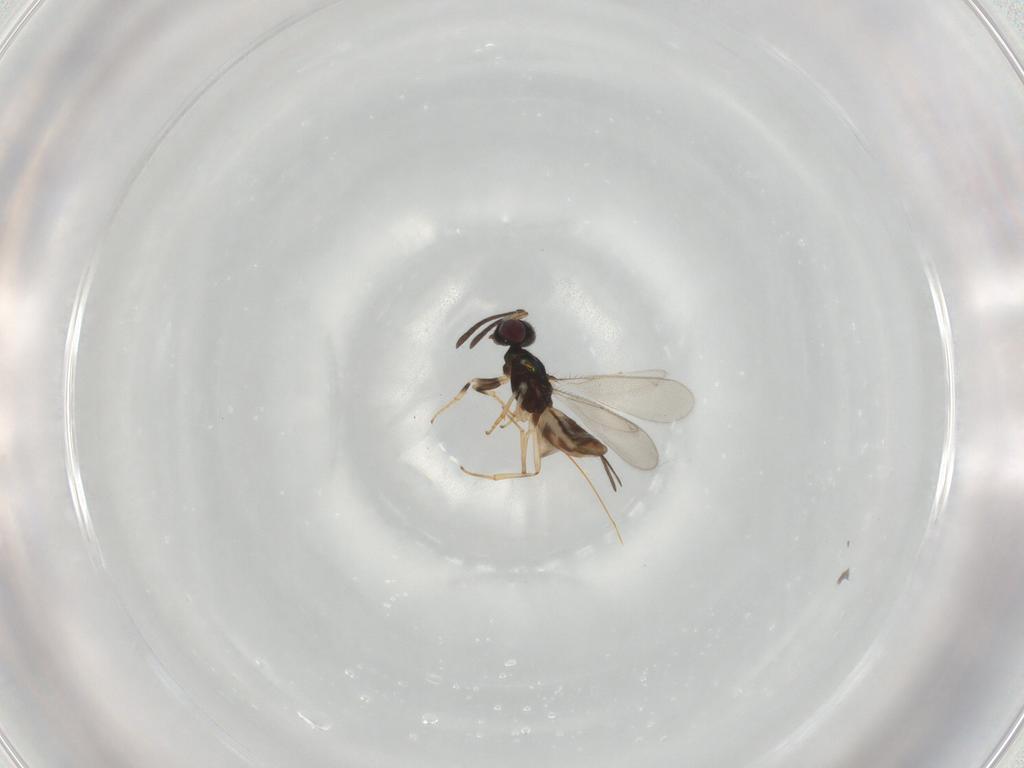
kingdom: Animalia
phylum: Arthropoda
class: Insecta
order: Hymenoptera
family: Eupelmidae
